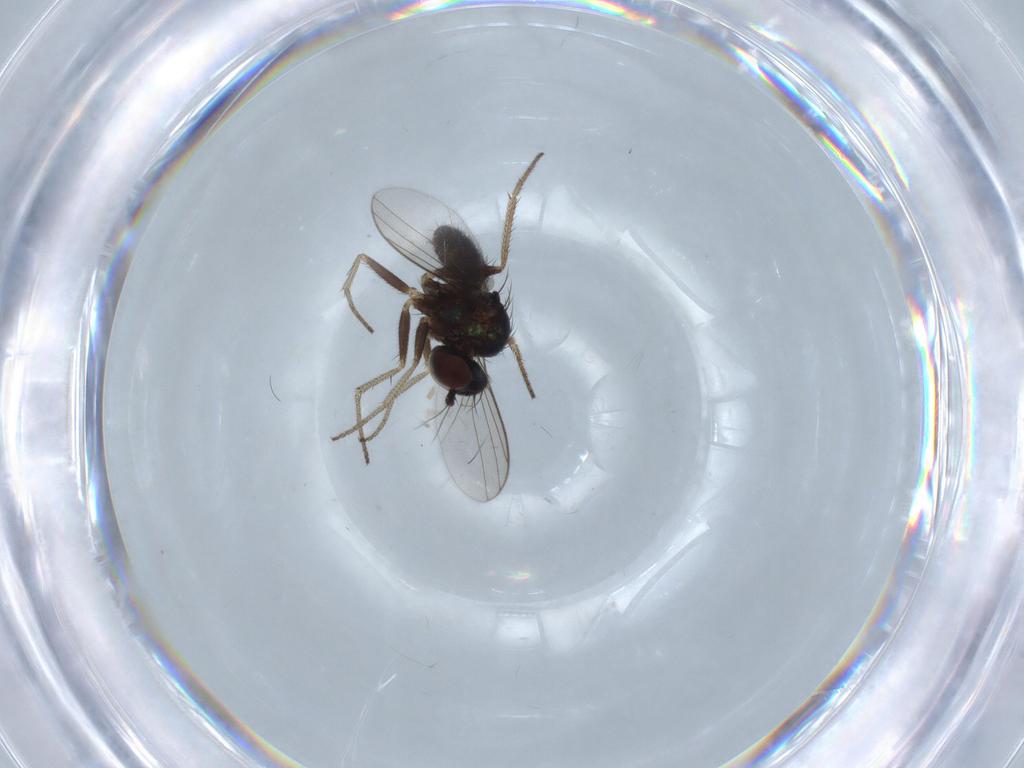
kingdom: Animalia
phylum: Arthropoda
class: Insecta
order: Diptera
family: Dolichopodidae
